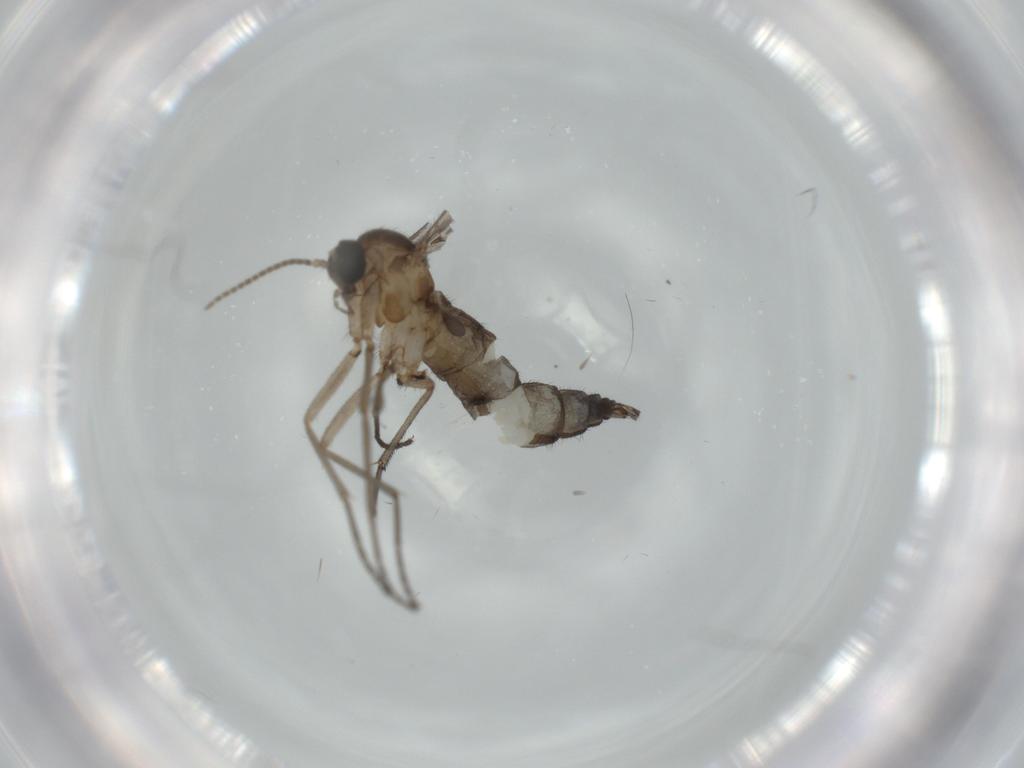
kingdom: Animalia
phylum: Arthropoda
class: Insecta
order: Diptera
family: Sciaridae
